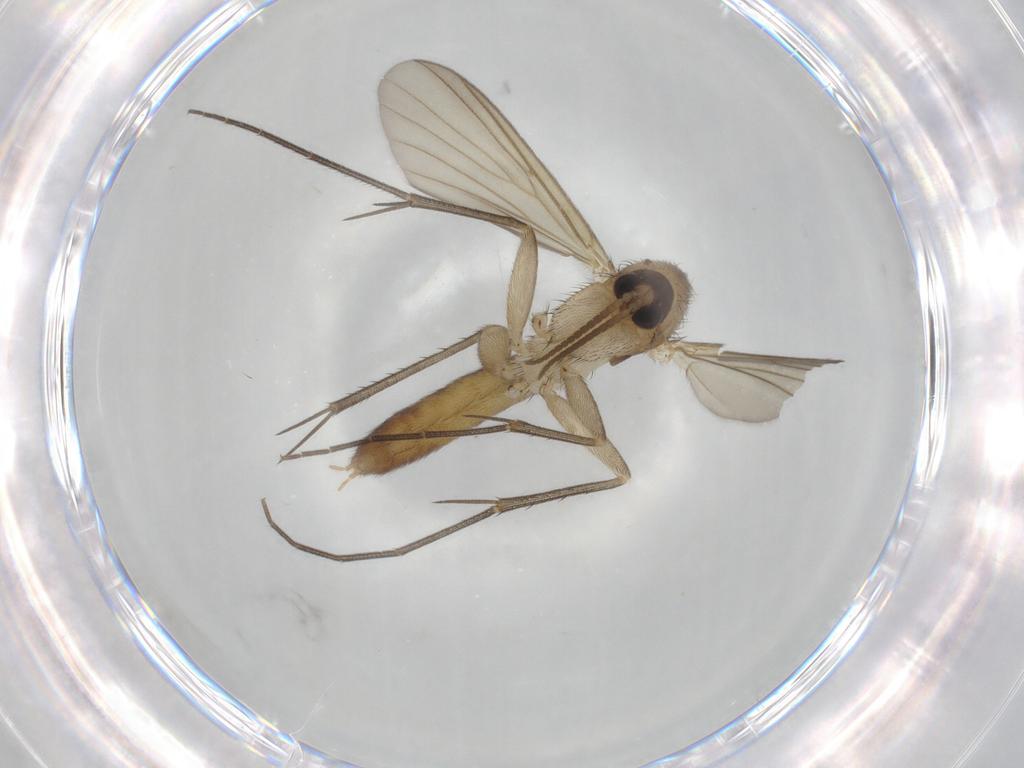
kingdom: Animalia
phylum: Arthropoda
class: Insecta
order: Diptera
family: Mycetophilidae
